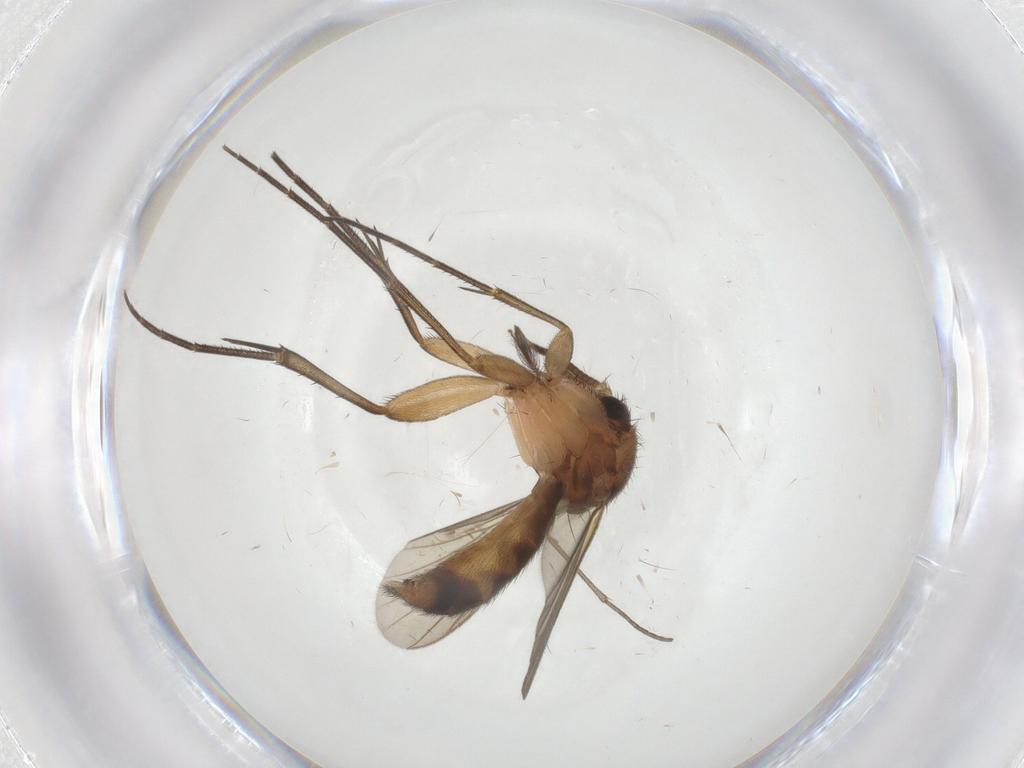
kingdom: Animalia
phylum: Arthropoda
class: Insecta
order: Diptera
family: Ceratopogonidae
